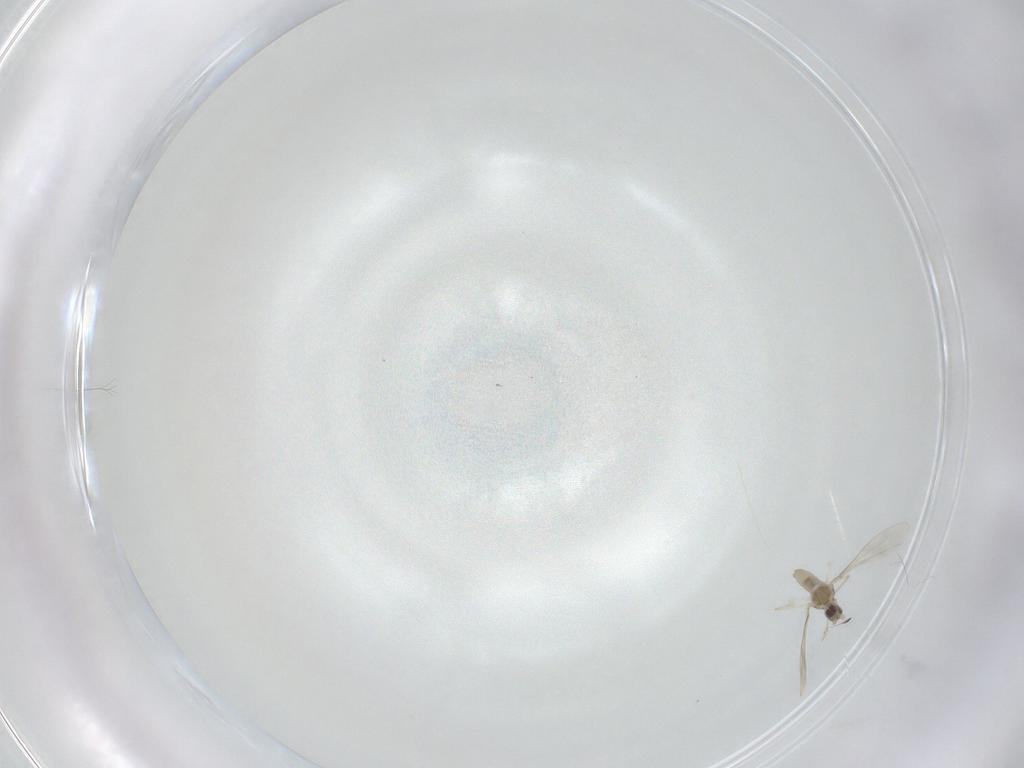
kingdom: Animalia
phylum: Arthropoda
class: Insecta
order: Diptera
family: Cecidomyiidae
